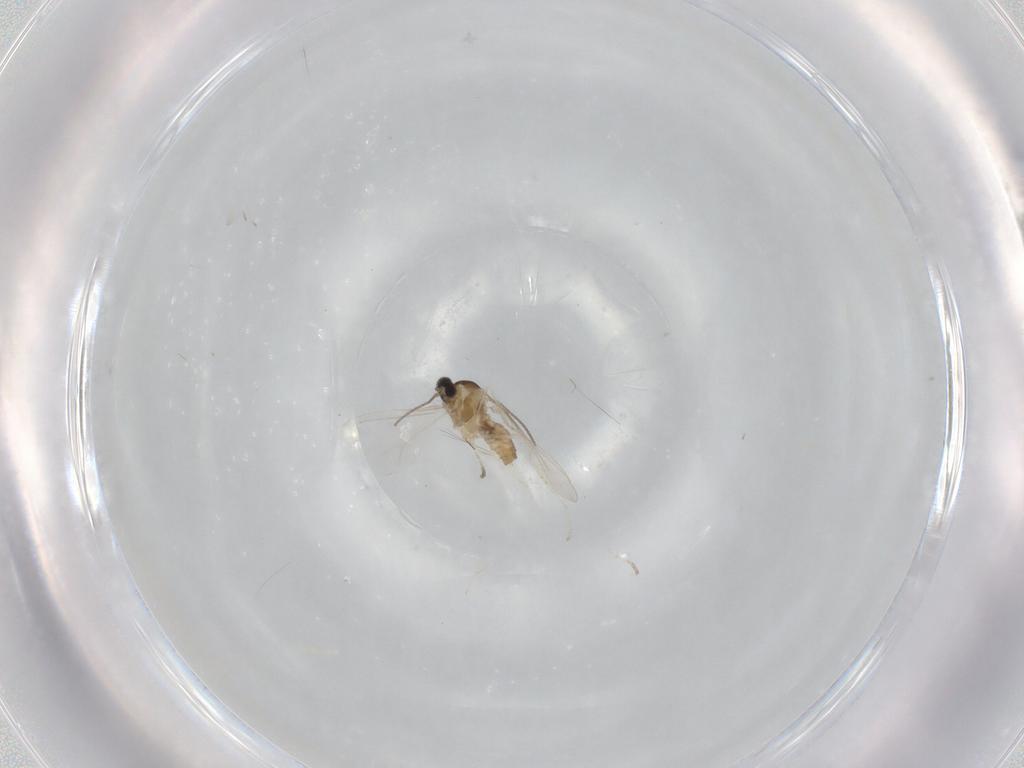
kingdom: Animalia
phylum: Arthropoda
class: Insecta
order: Diptera
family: Cecidomyiidae
